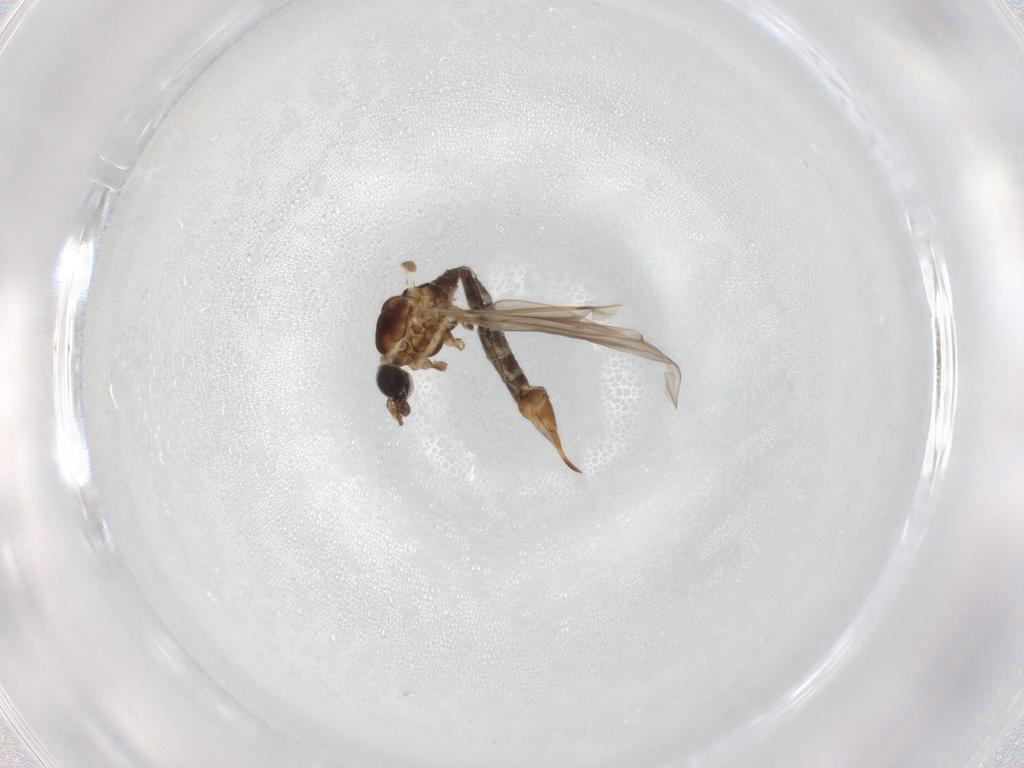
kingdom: Animalia
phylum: Arthropoda
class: Insecta
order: Diptera
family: Limoniidae
